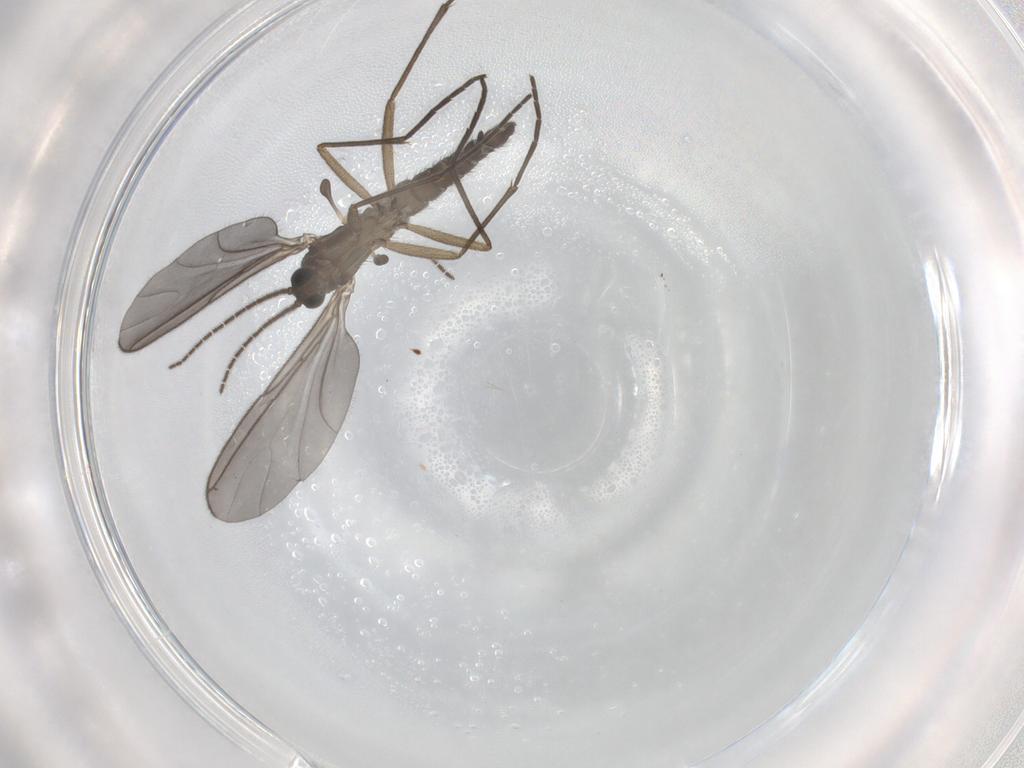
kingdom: Animalia
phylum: Arthropoda
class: Insecta
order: Diptera
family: Sciaridae
